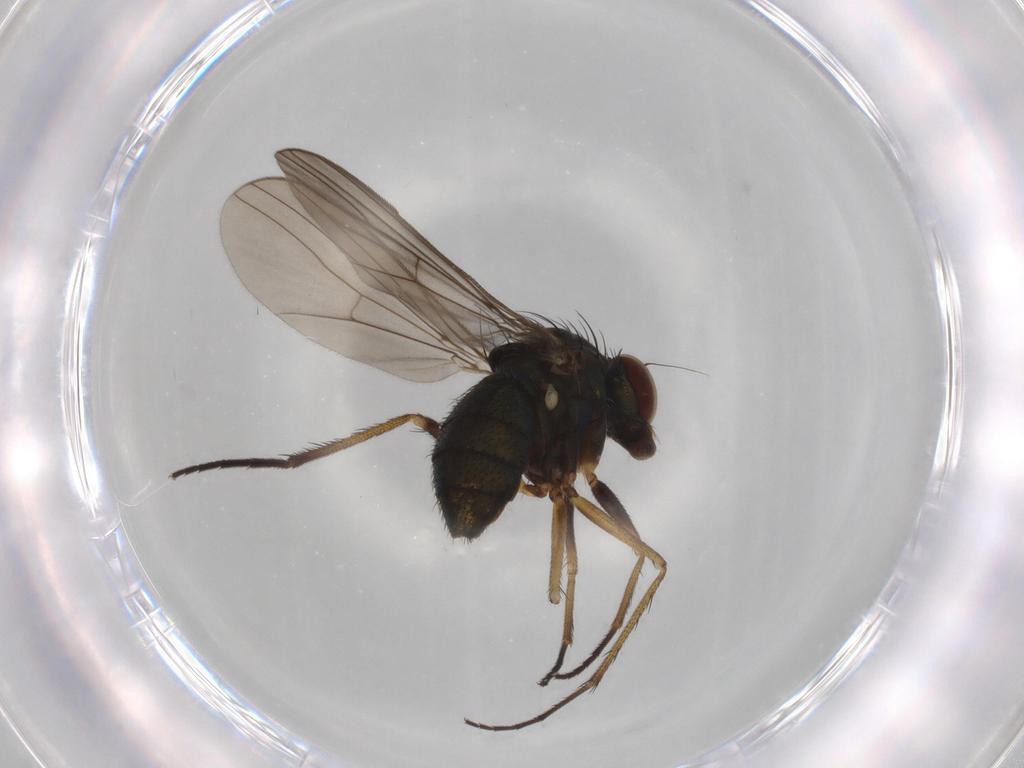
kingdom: Animalia
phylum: Arthropoda
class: Insecta
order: Diptera
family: Dolichopodidae
